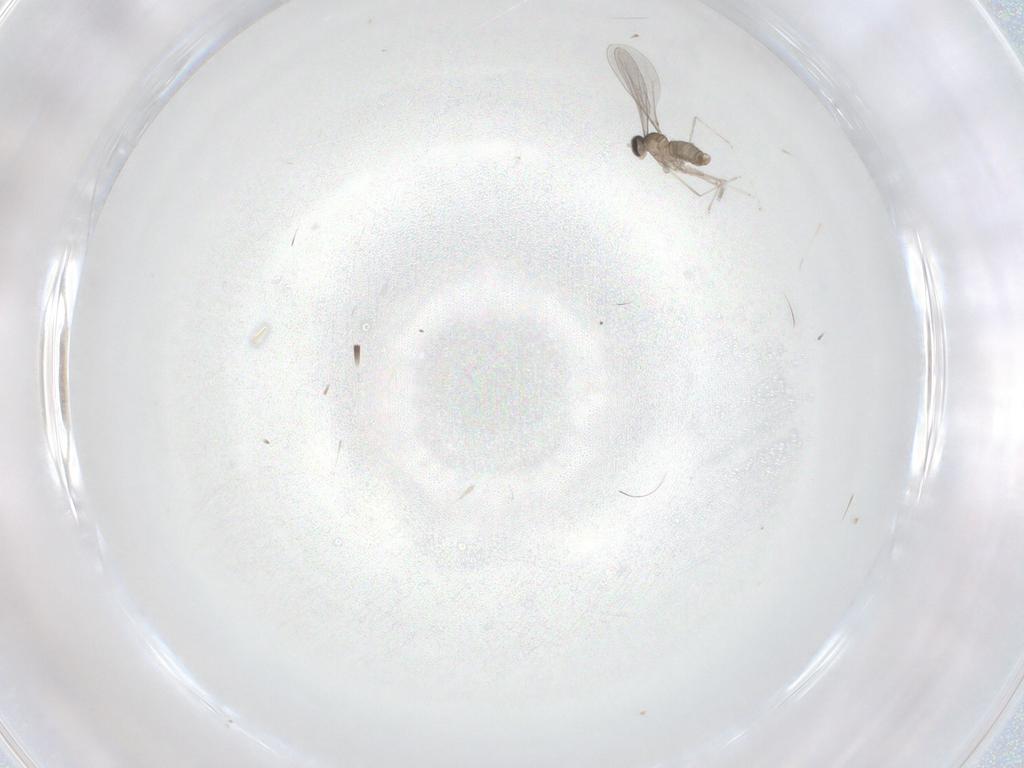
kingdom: Animalia
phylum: Arthropoda
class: Insecta
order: Diptera
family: Cecidomyiidae
